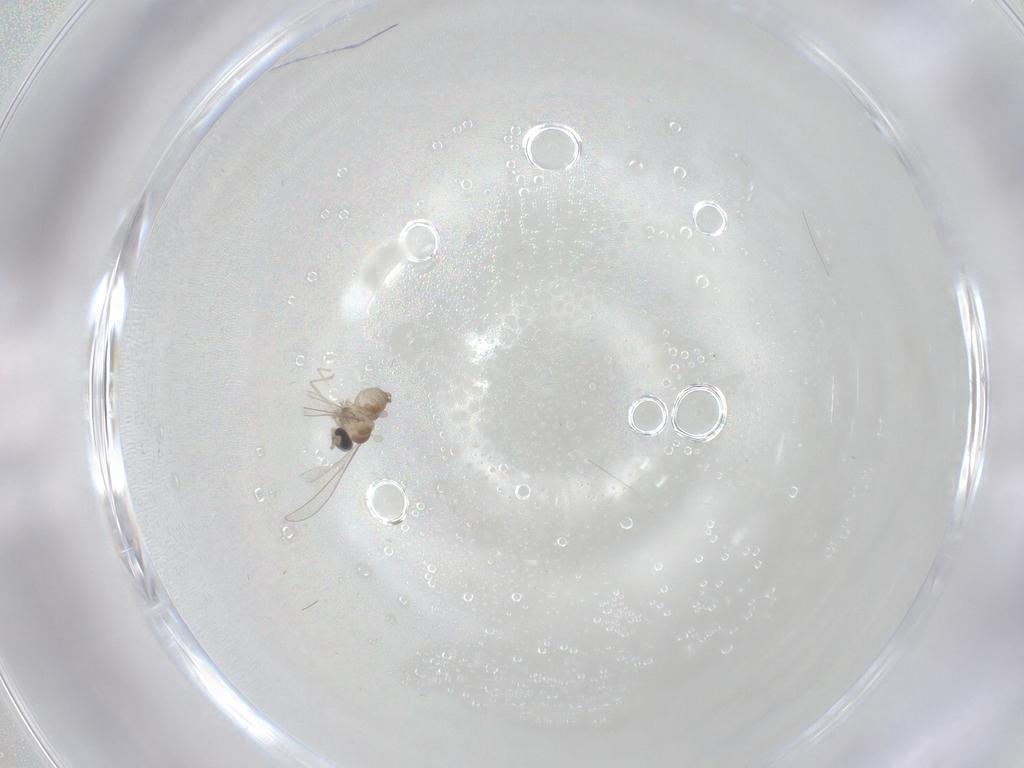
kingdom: Animalia
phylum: Arthropoda
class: Insecta
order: Diptera
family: Cecidomyiidae
